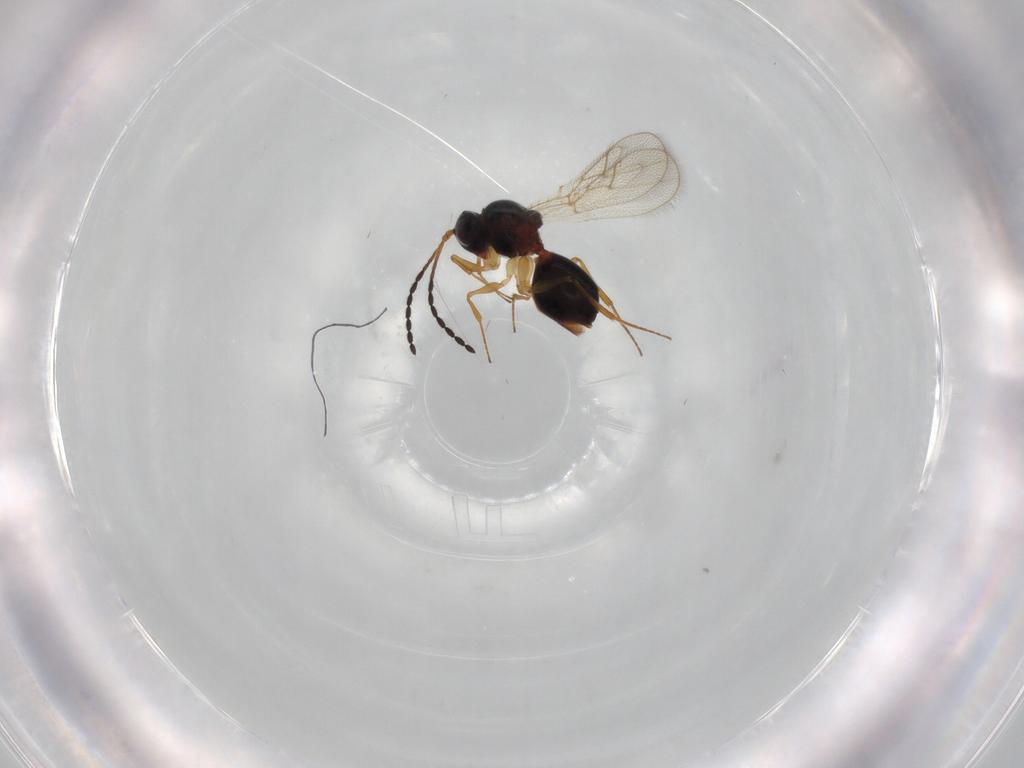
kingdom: Animalia
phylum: Arthropoda
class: Insecta
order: Hymenoptera
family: Figitidae
